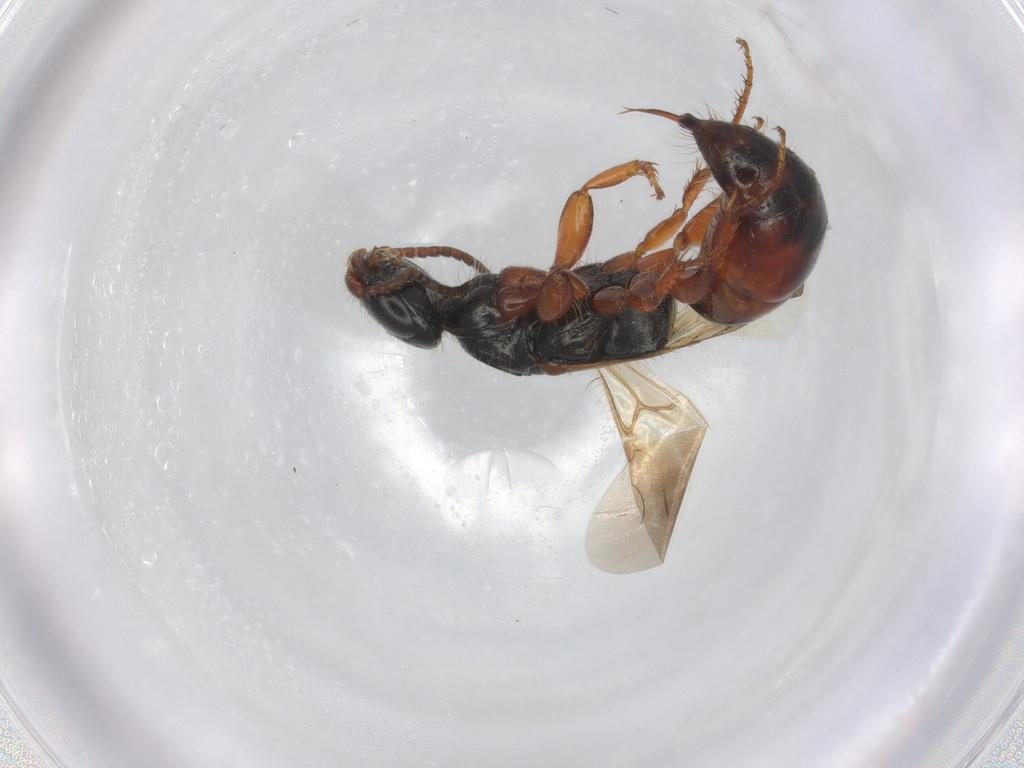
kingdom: Animalia
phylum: Arthropoda
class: Insecta
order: Hymenoptera
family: Bethylidae
